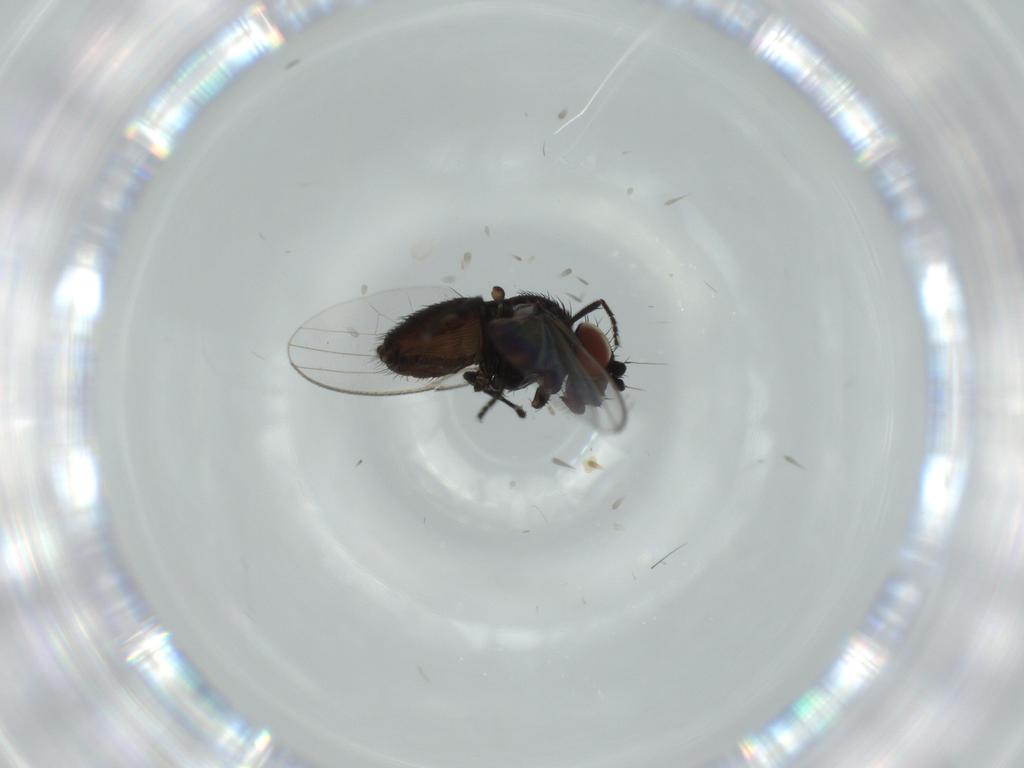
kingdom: Animalia
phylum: Arthropoda
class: Insecta
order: Diptera
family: Milichiidae
